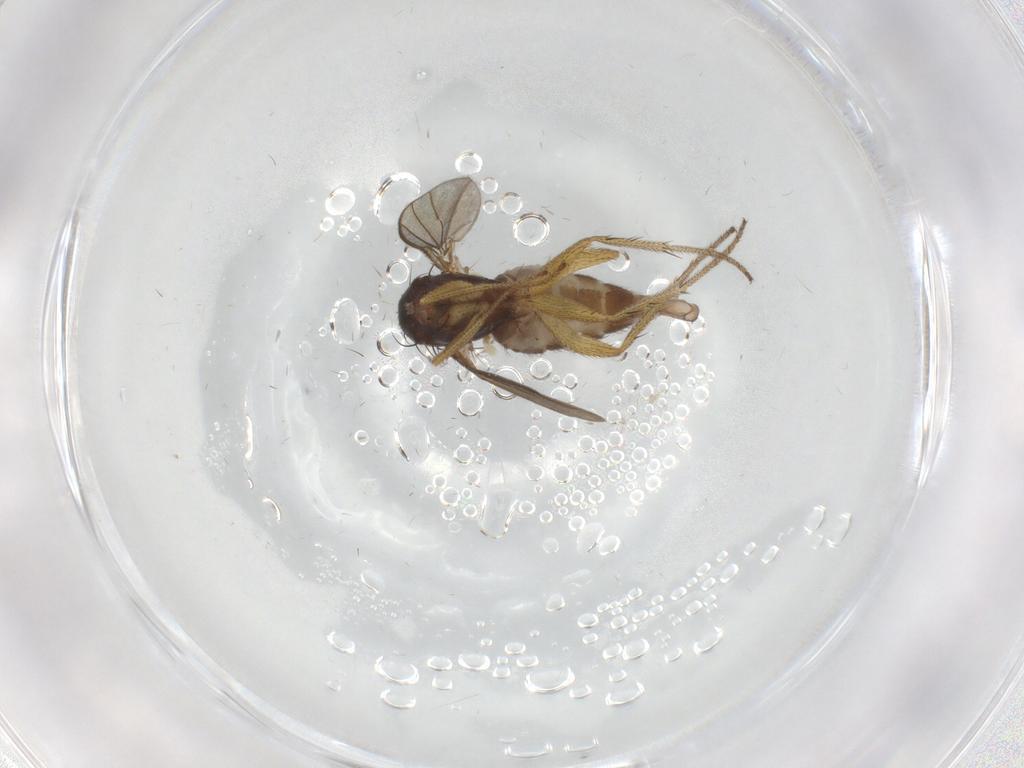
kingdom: Animalia
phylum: Arthropoda
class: Insecta
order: Diptera
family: Dolichopodidae
